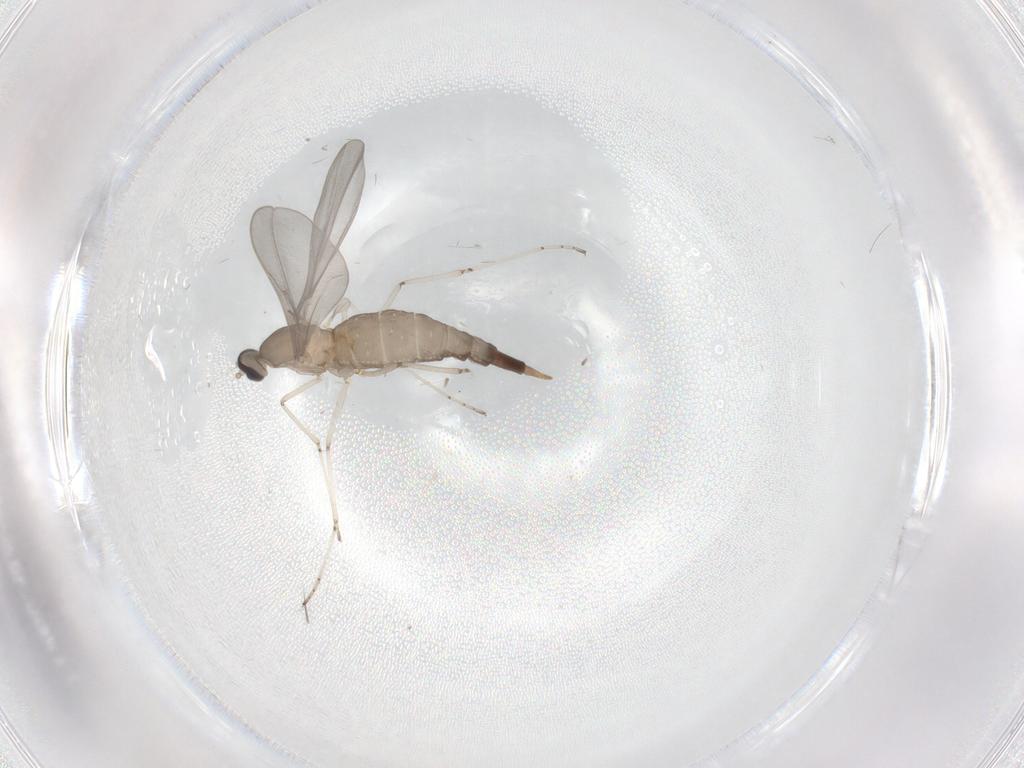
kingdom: Animalia
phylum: Arthropoda
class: Insecta
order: Diptera
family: Cecidomyiidae
